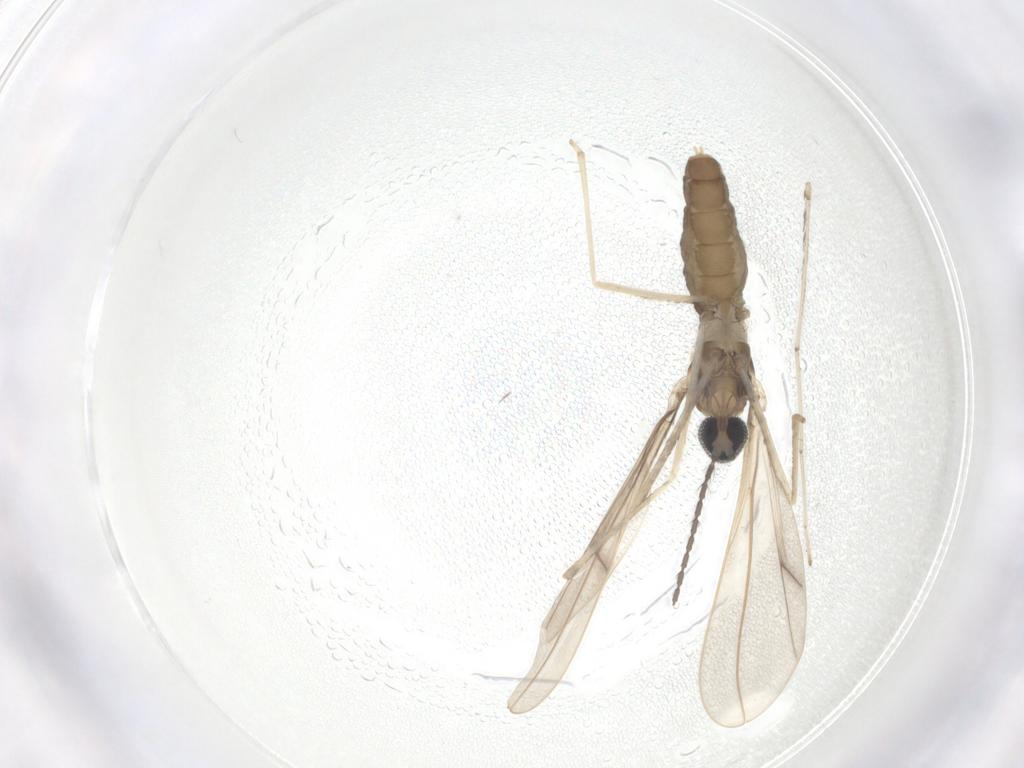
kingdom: Animalia
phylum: Arthropoda
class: Insecta
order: Diptera
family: Cecidomyiidae
